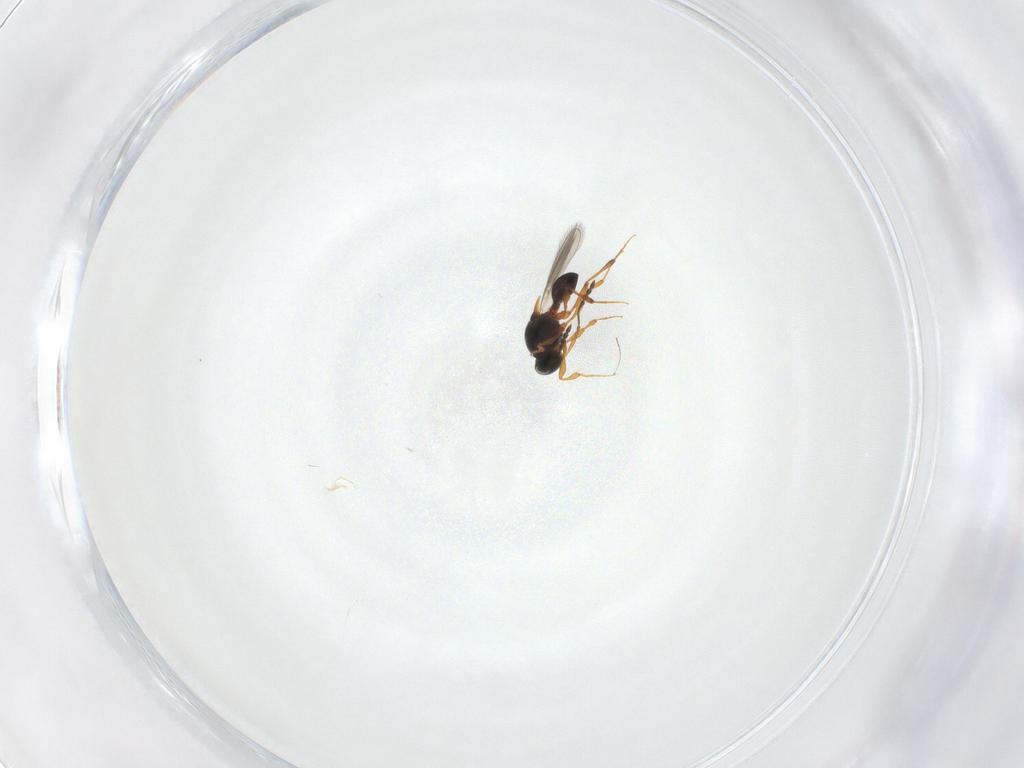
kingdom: Animalia
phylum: Arthropoda
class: Insecta
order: Hymenoptera
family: Platygastridae
